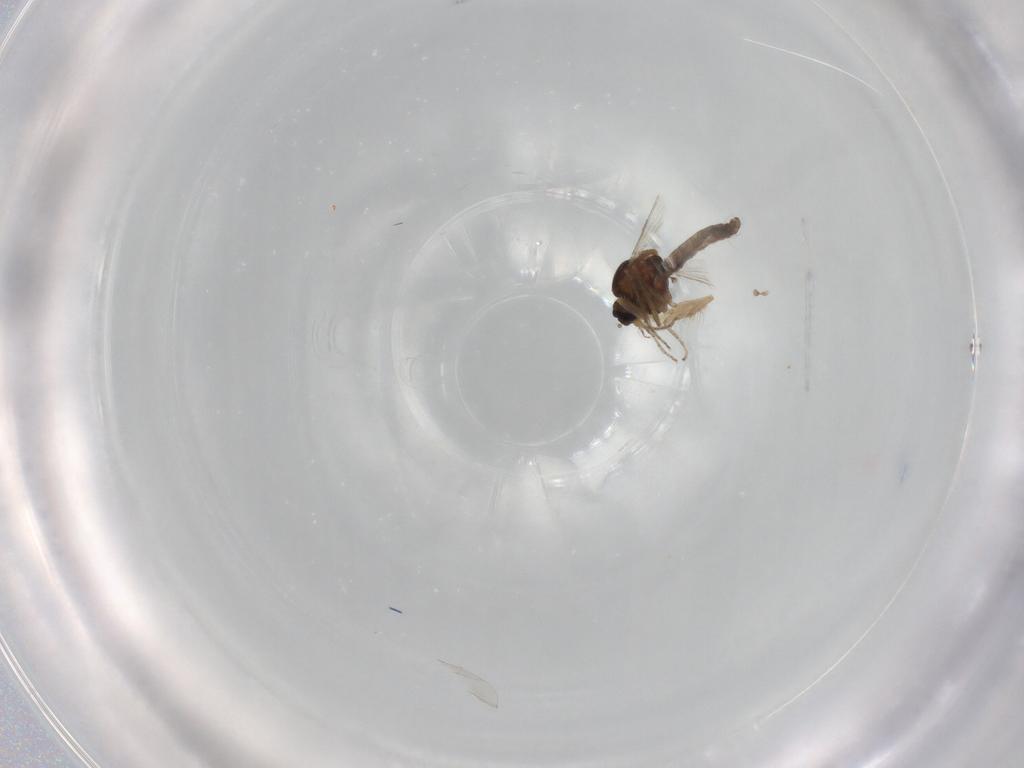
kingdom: Animalia
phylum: Arthropoda
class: Insecta
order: Diptera
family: Ceratopogonidae
